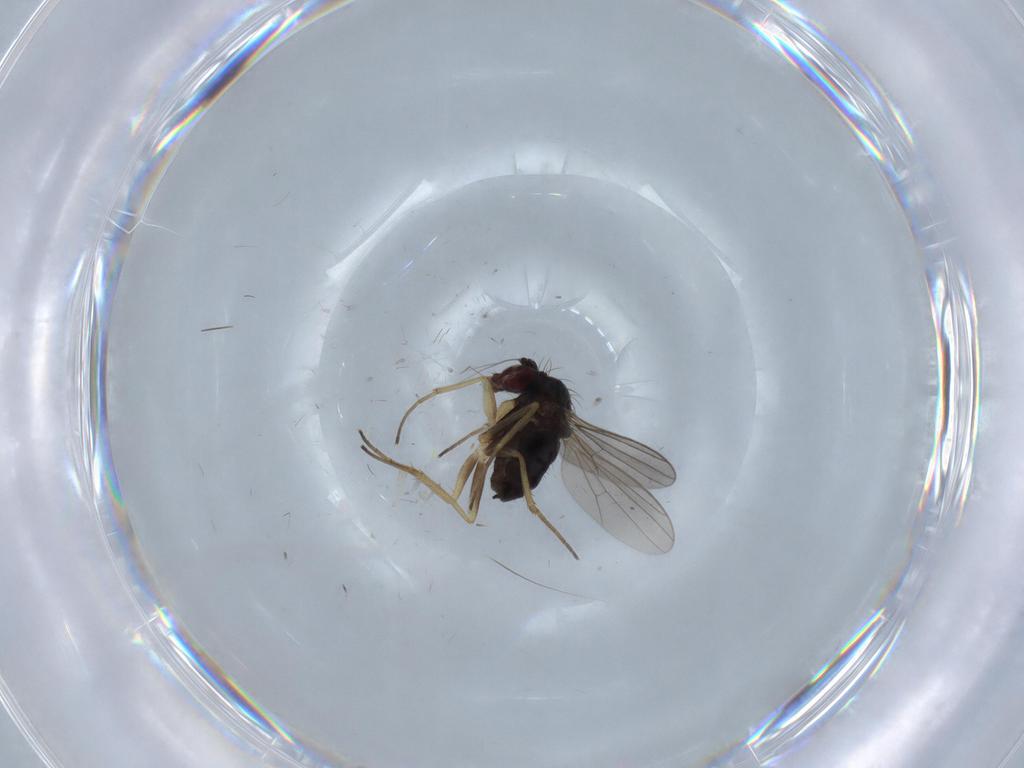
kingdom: Animalia
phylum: Arthropoda
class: Insecta
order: Diptera
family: Dolichopodidae
